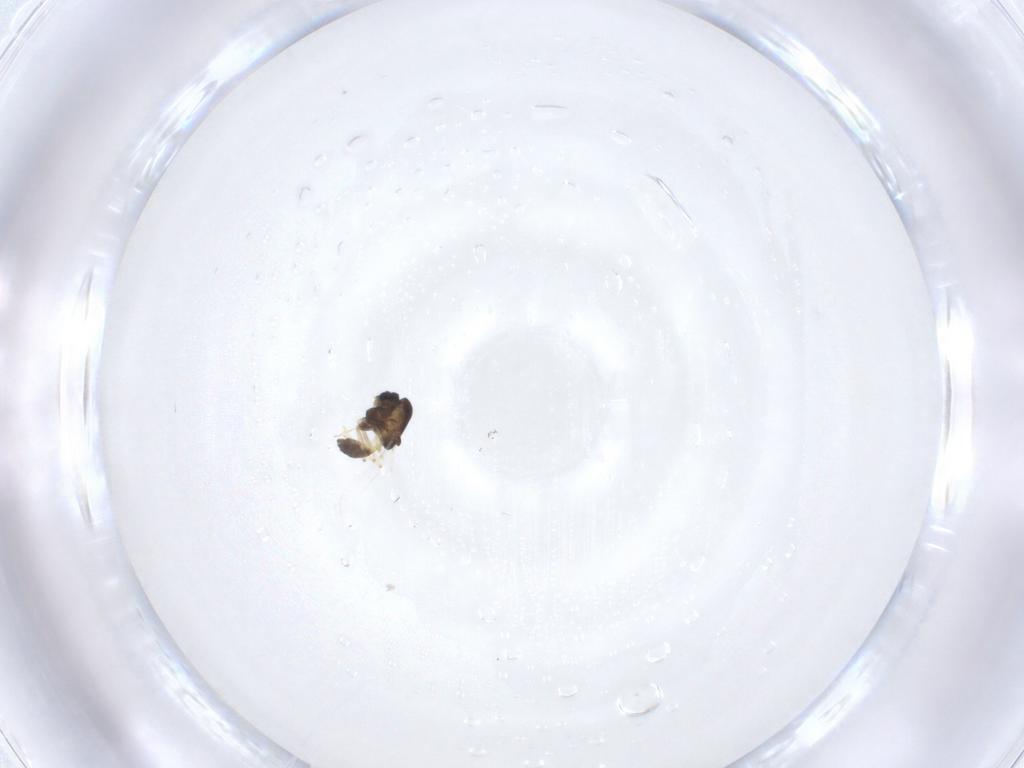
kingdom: Animalia
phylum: Arthropoda
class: Insecta
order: Diptera
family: Chironomidae
